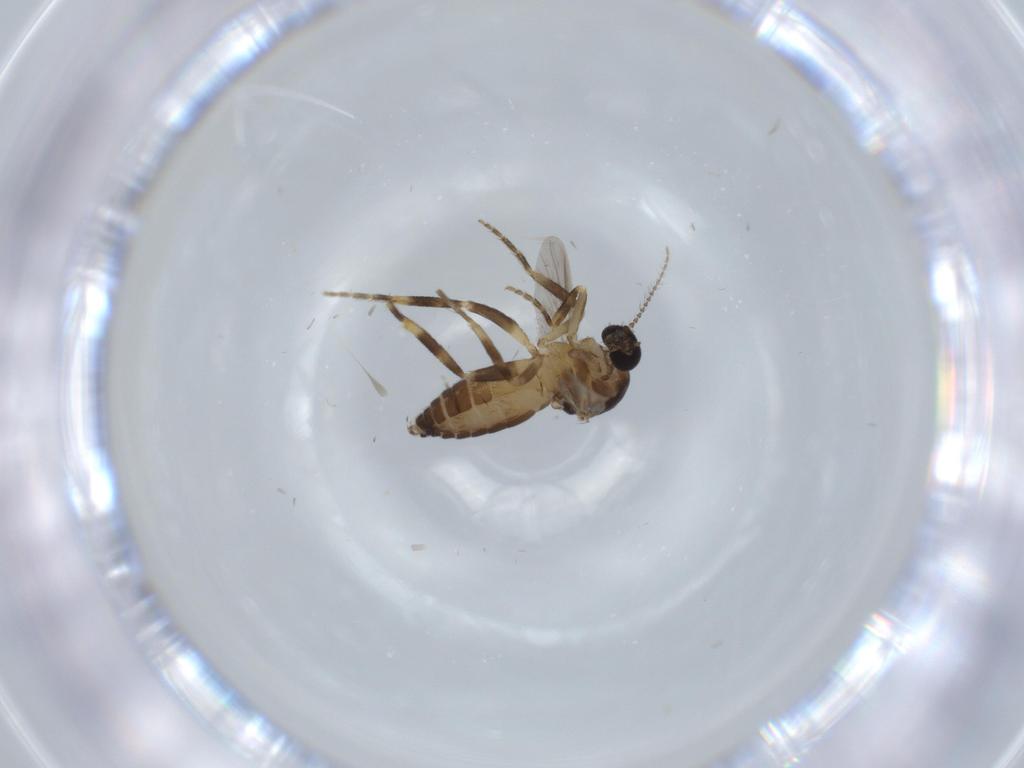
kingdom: Animalia
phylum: Arthropoda
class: Insecta
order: Diptera
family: Ceratopogonidae
